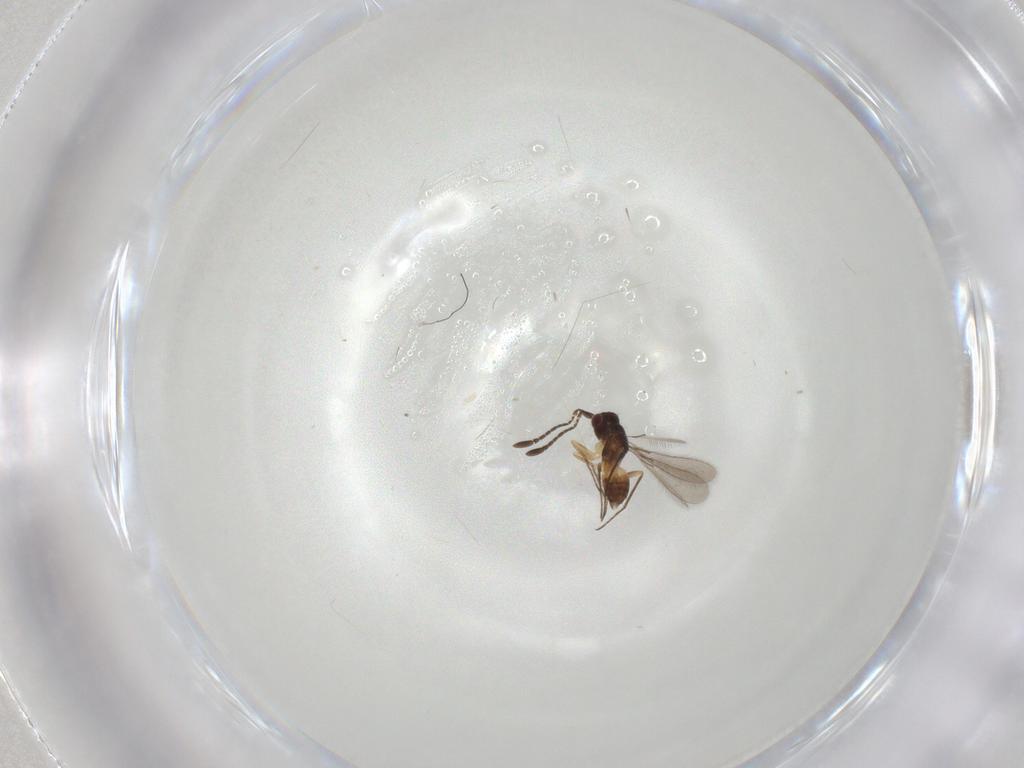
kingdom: Animalia
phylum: Arthropoda
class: Insecta
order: Hymenoptera
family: Mymaridae
